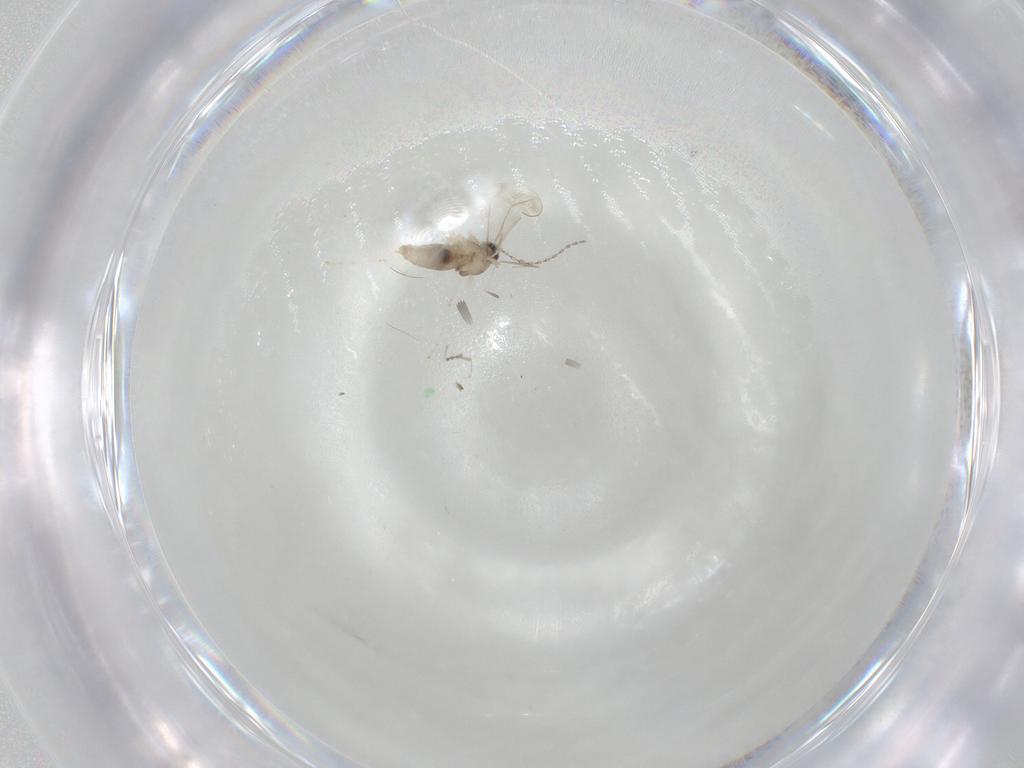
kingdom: Animalia
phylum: Arthropoda
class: Insecta
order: Diptera
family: Cecidomyiidae
